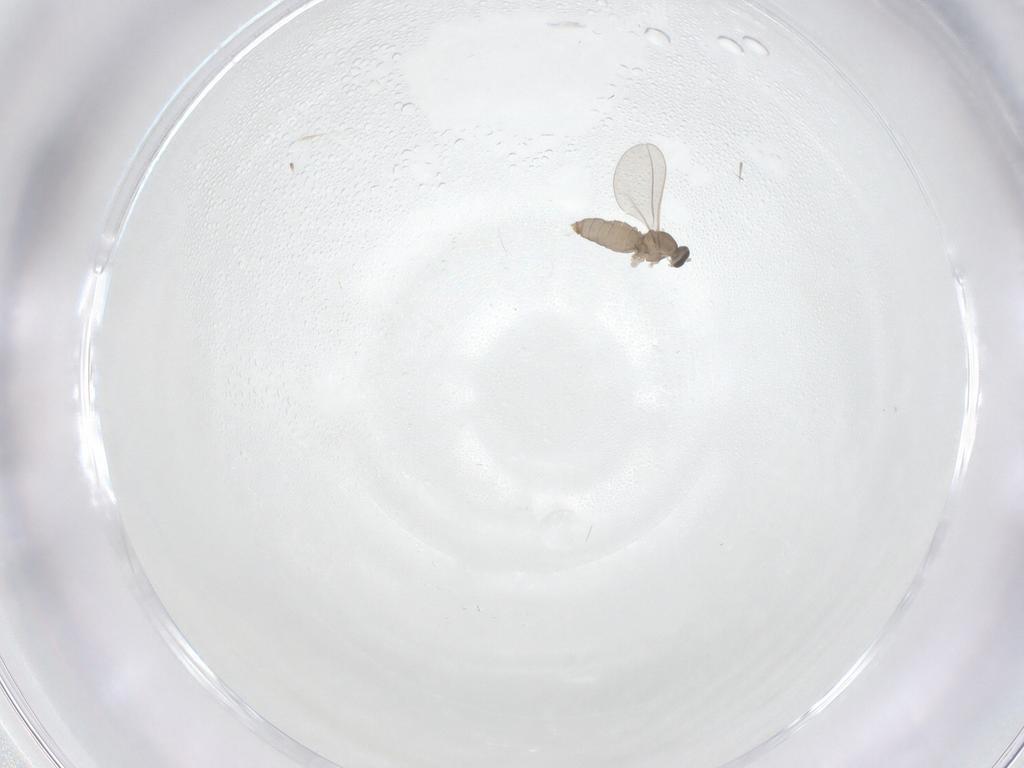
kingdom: Animalia
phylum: Arthropoda
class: Insecta
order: Diptera
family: Cecidomyiidae
